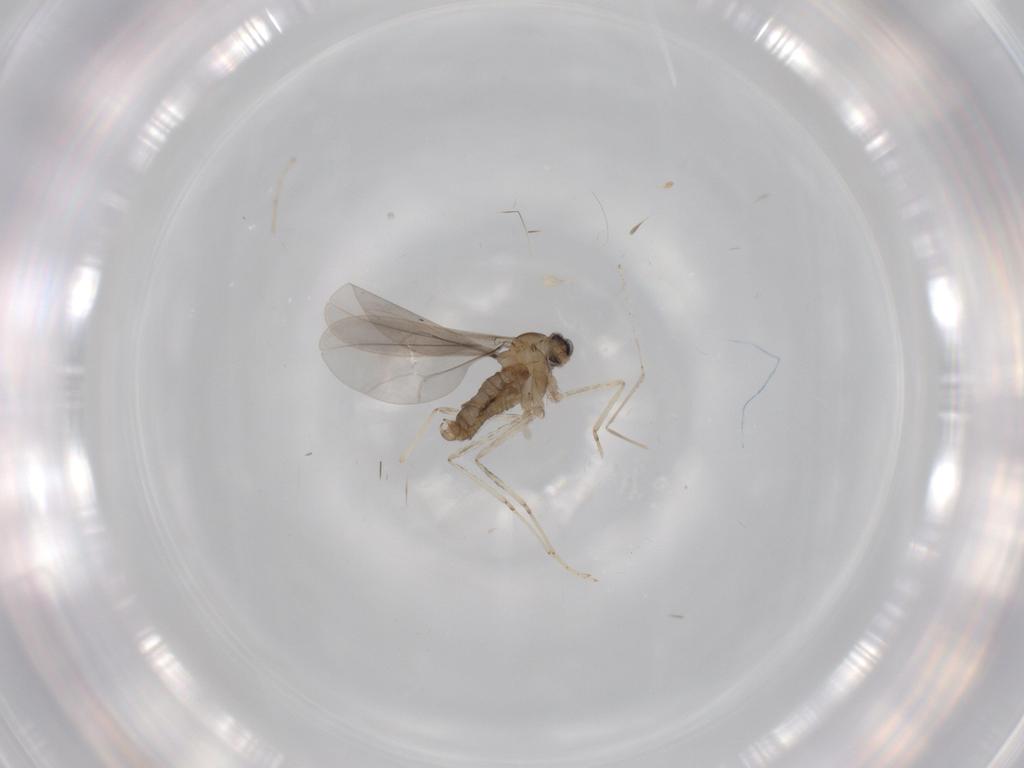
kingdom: Animalia
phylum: Arthropoda
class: Insecta
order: Diptera
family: Cecidomyiidae
